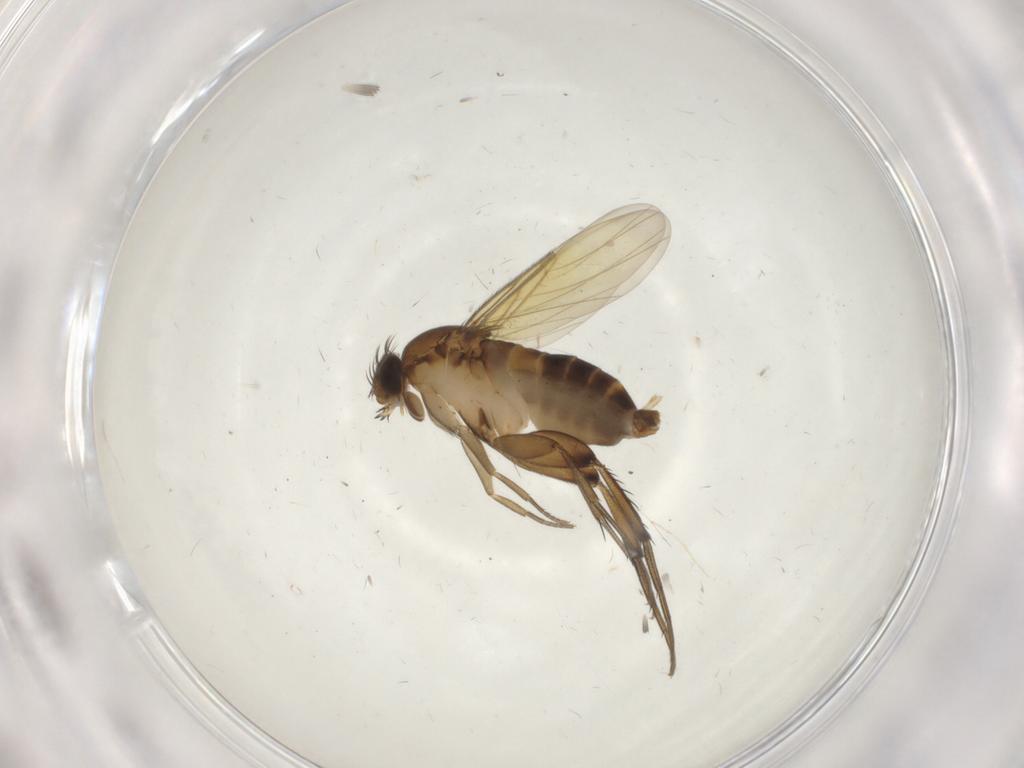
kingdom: Animalia
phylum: Arthropoda
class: Insecta
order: Diptera
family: Phoridae
